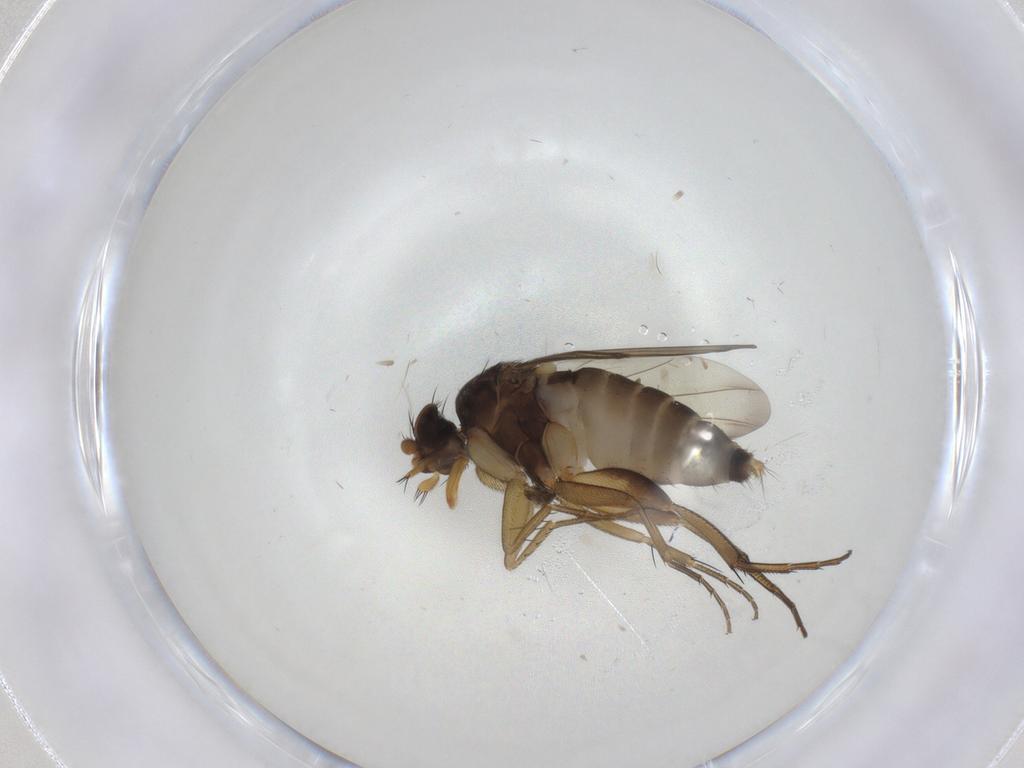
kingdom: Animalia
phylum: Arthropoda
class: Insecta
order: Diptera
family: Phoridae
